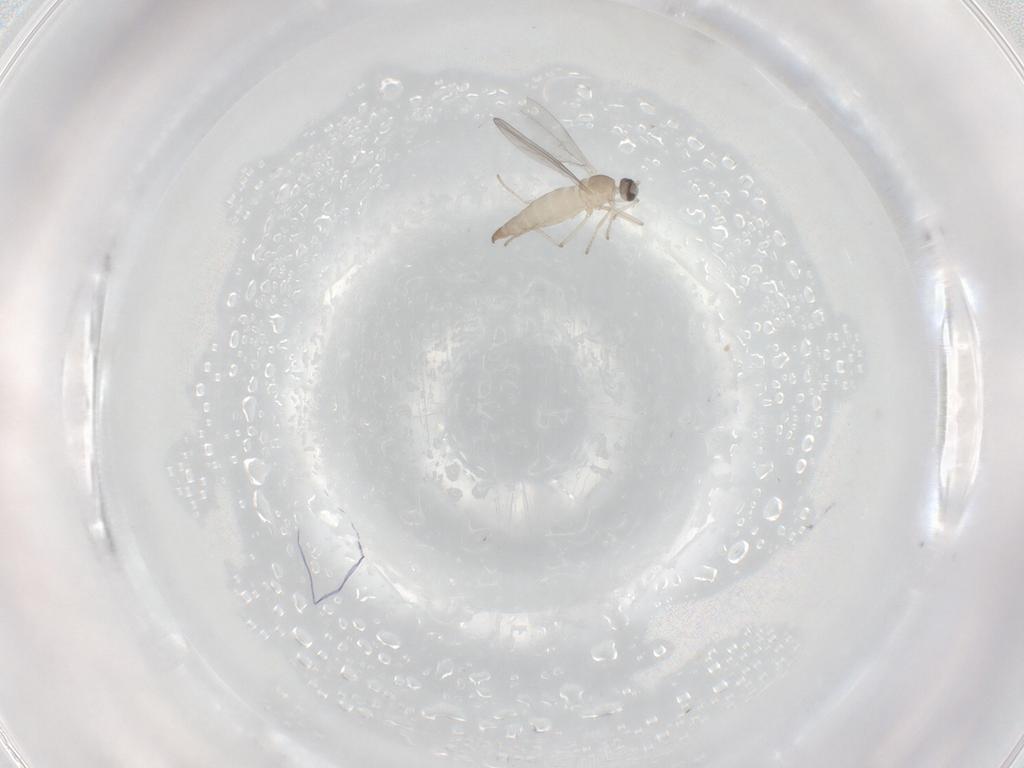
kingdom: Animalia
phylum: Arthropoda
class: Insecta
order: Diptera
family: Cecidomyiidae
